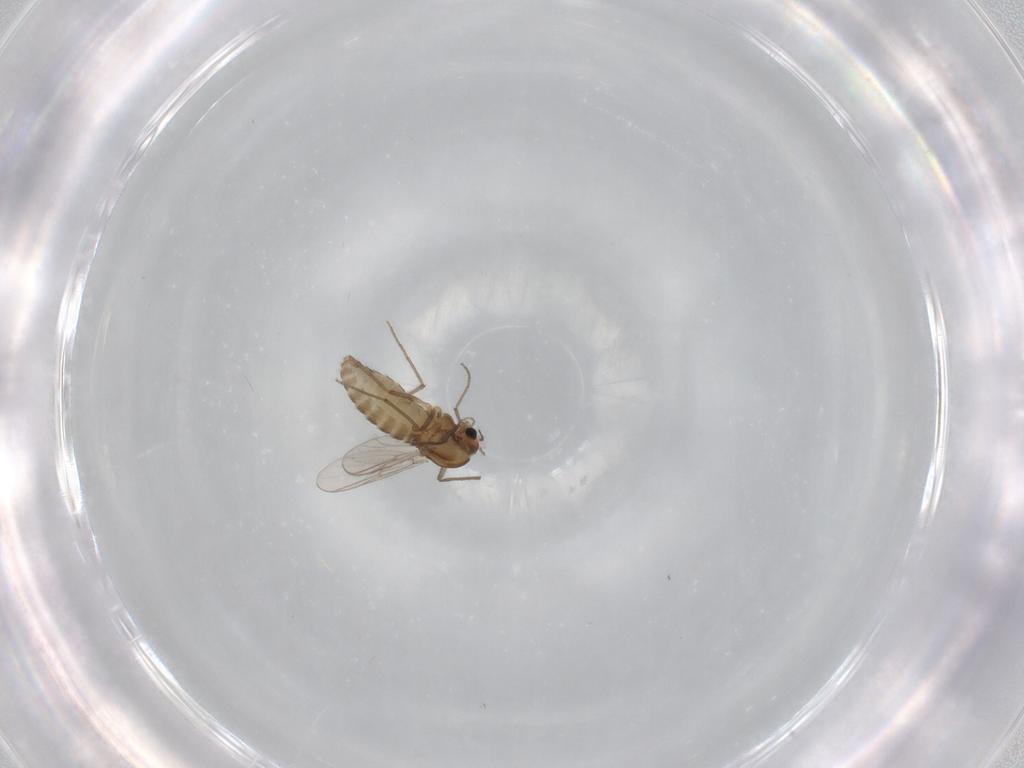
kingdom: Animalia
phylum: Arthropoda
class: Insecta
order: Diptera
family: Chironomidae
